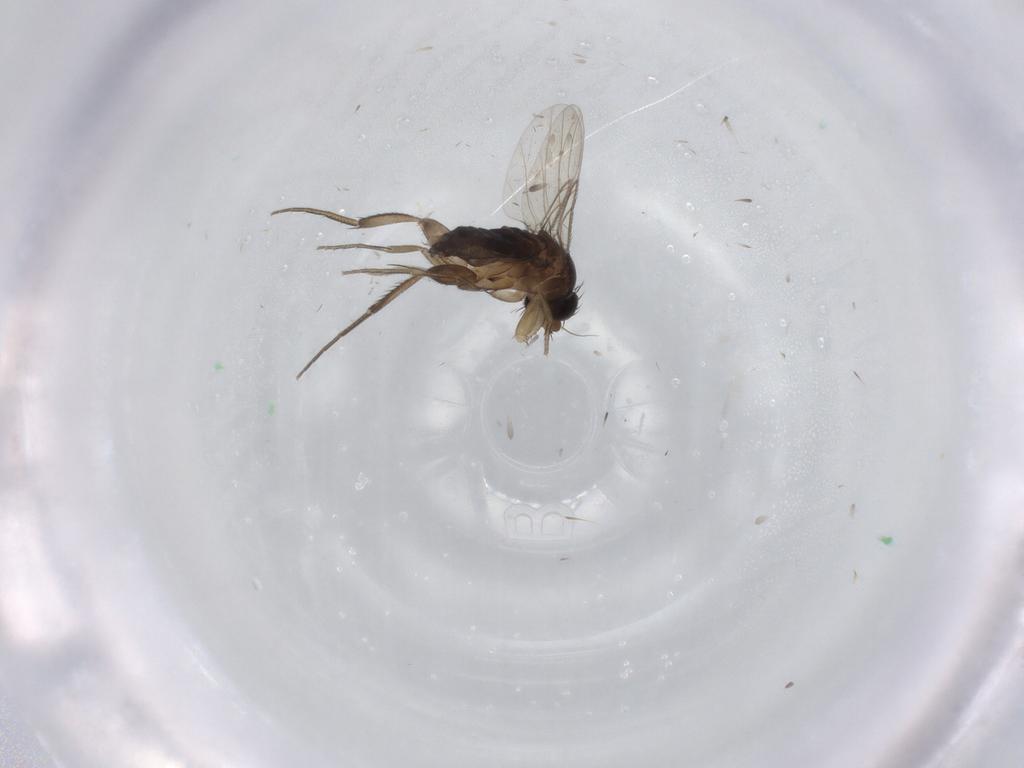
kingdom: Animalia
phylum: Arthropoda
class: Insecta
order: Diptera
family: Phoridae
